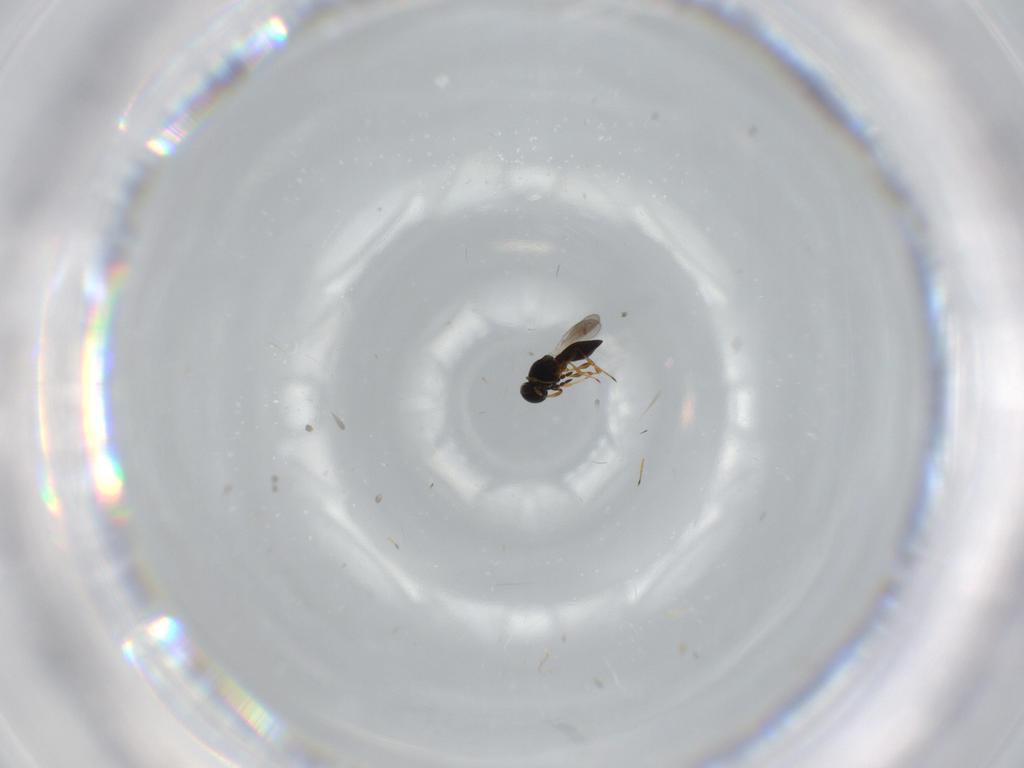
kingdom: Animalia
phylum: Arthropoda
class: Insecta
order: Hymenoptera
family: Platygastridae
